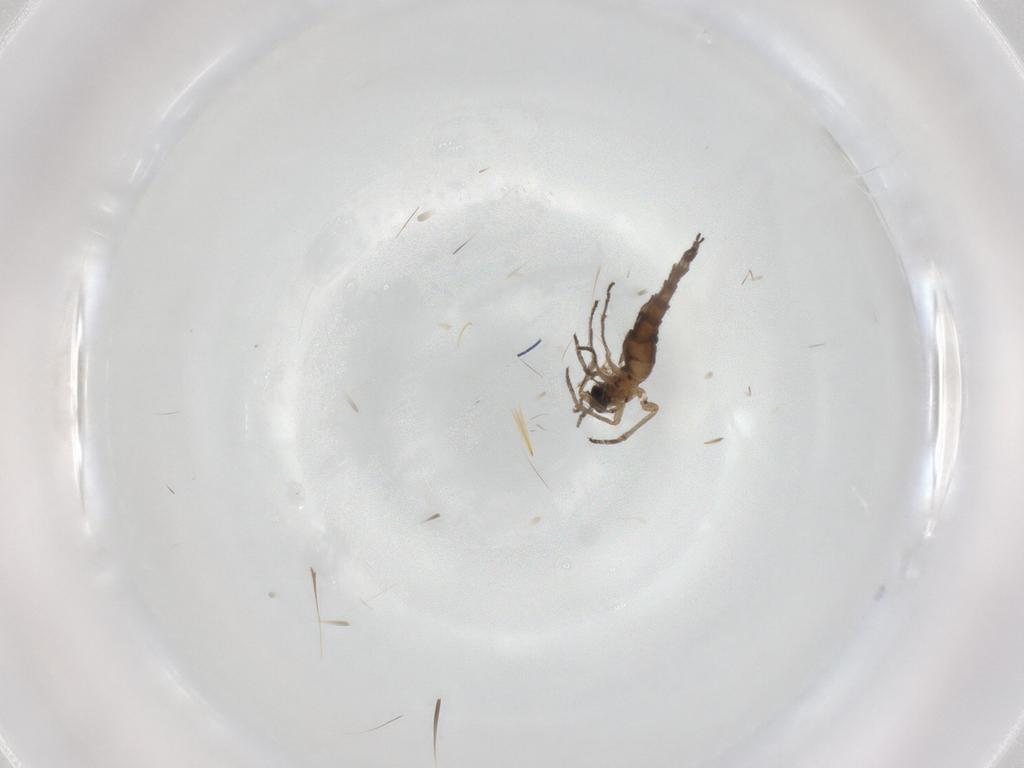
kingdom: Animalia
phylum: Arthropoda
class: Insecta
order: Diptera
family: Sciaridae
